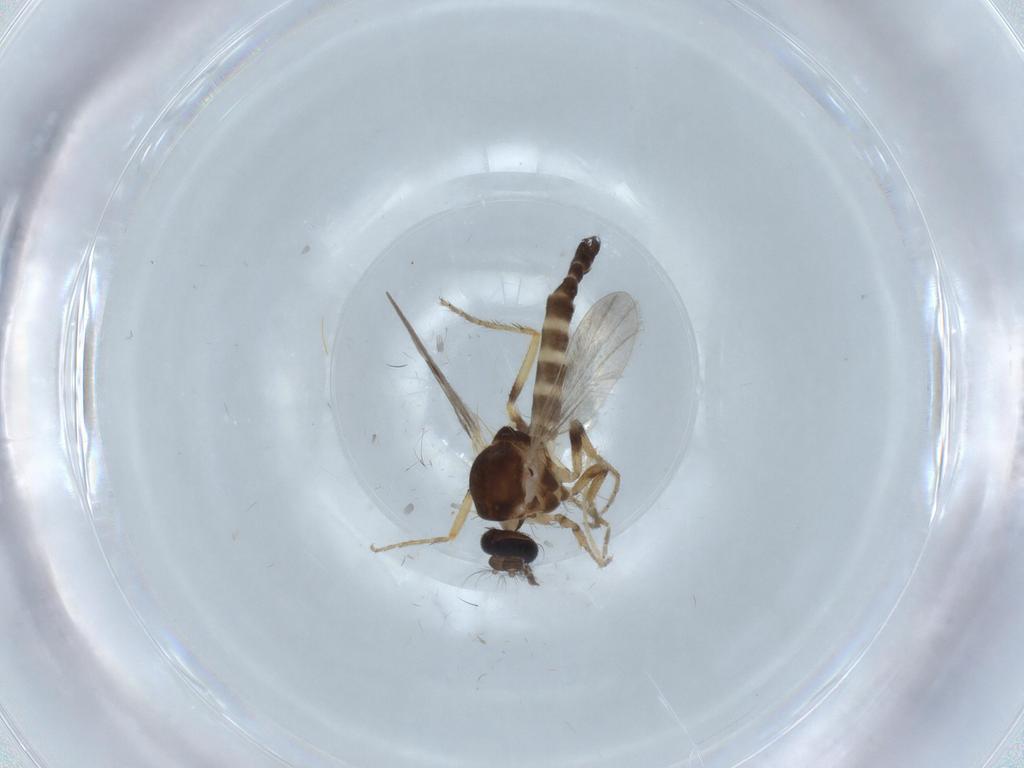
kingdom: Animalia
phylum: Arthropoda
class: Insecta
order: Diptera
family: Ceratopogonidae
